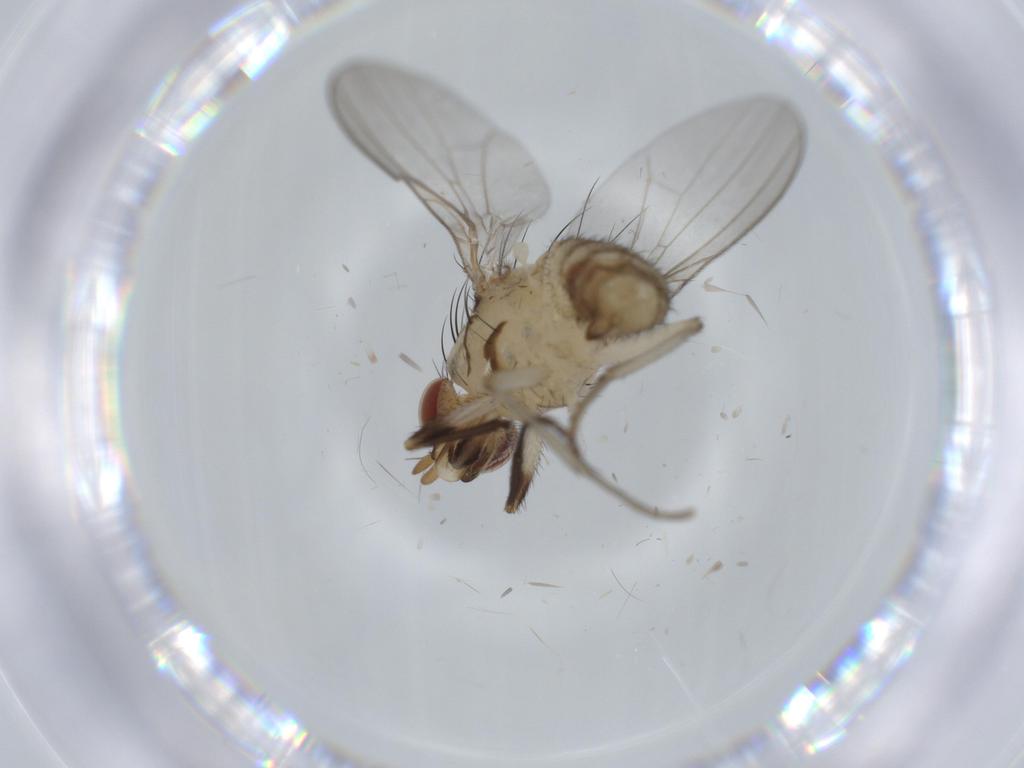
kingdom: Animalia
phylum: Arthropoda
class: Insecta
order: Diptera
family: Lauxaniidae
